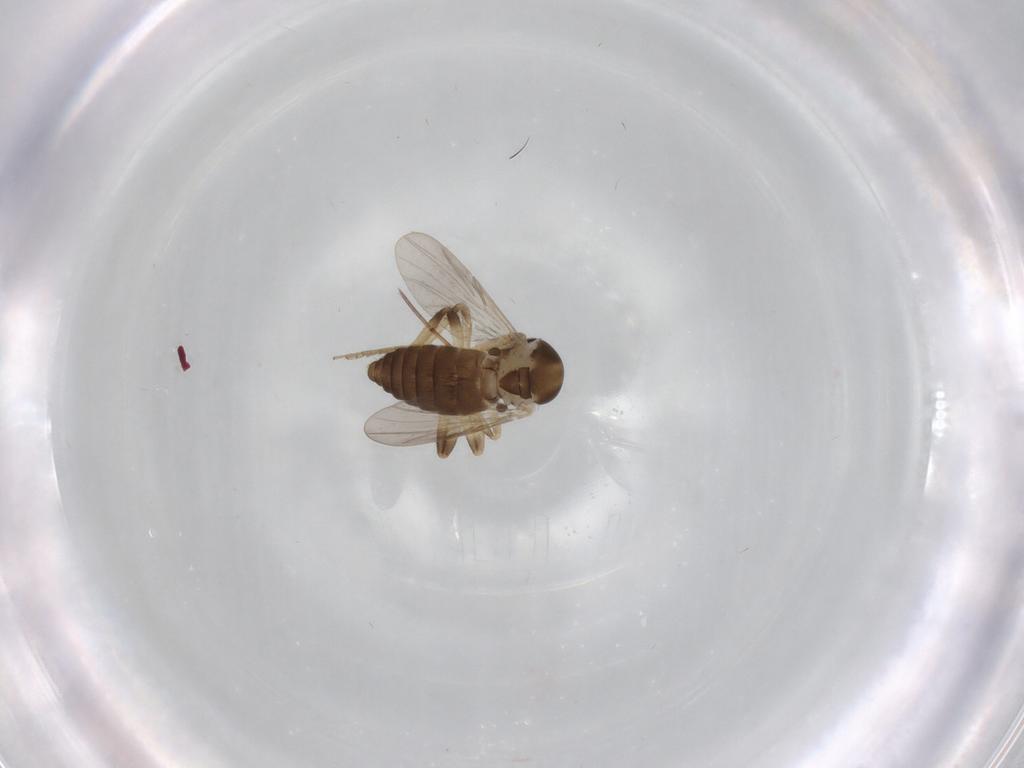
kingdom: Animalia
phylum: Arthropoda
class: Insecta
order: Diptera
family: Ceratopogonidae
